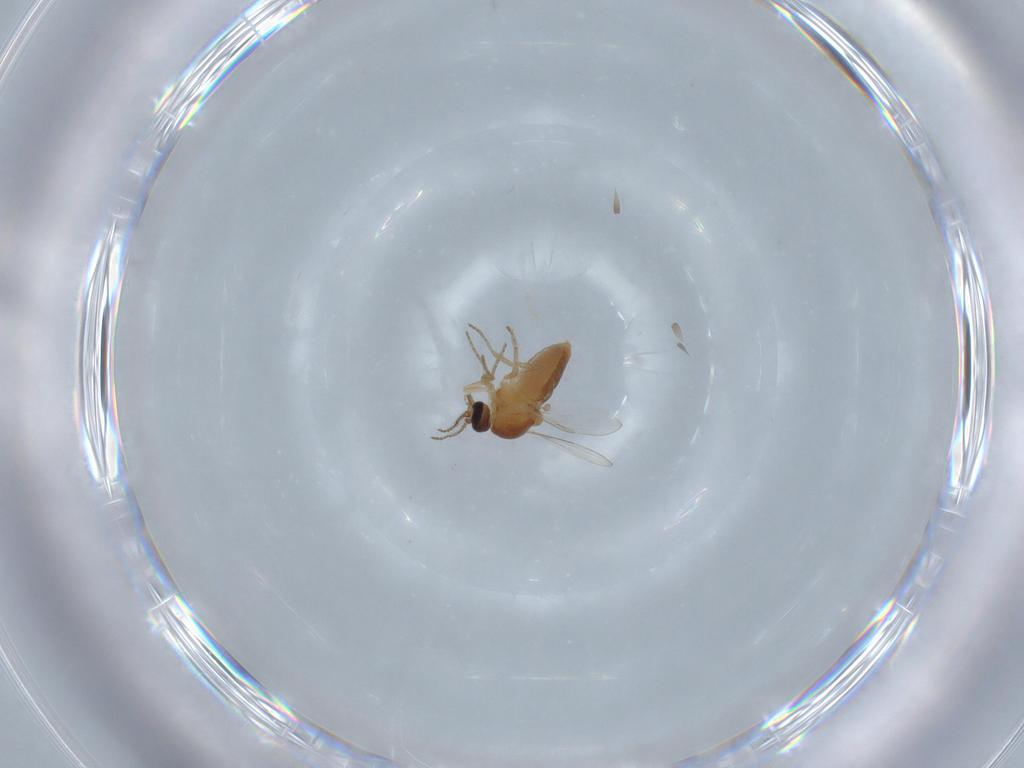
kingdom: Animalia
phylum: Arthropoda
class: Insecta
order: Diptera
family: Ceratopogonidae
